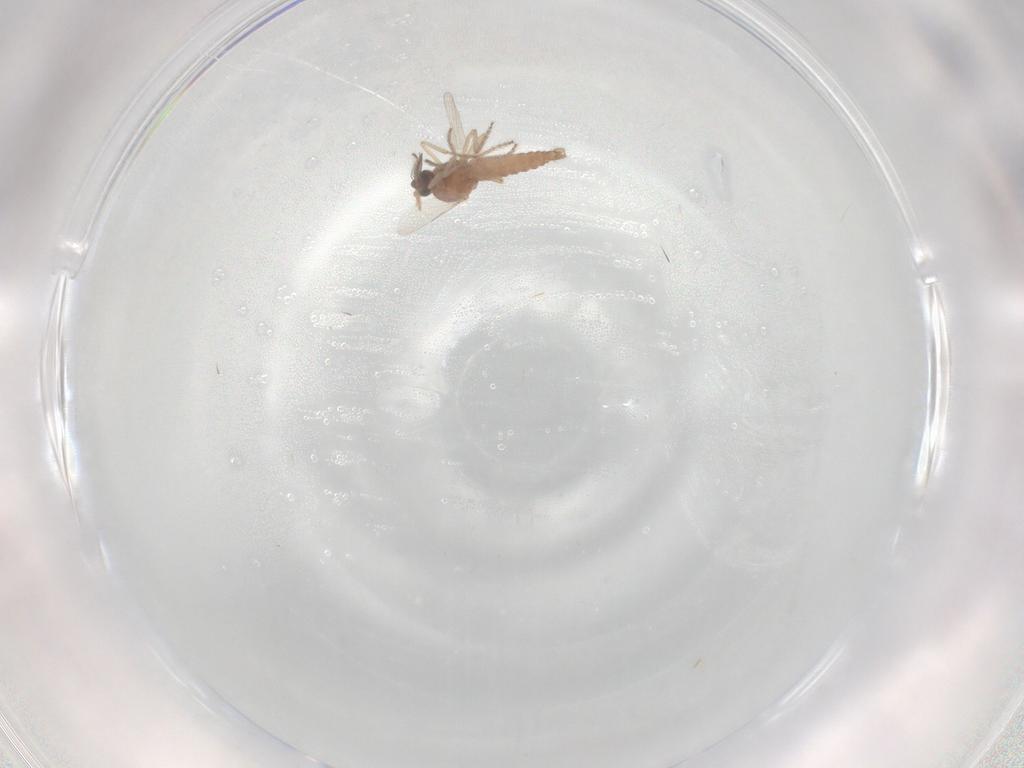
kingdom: Animalia
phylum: Arthropoda
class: Insecta
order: Diptera
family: Ceratopogonidae
